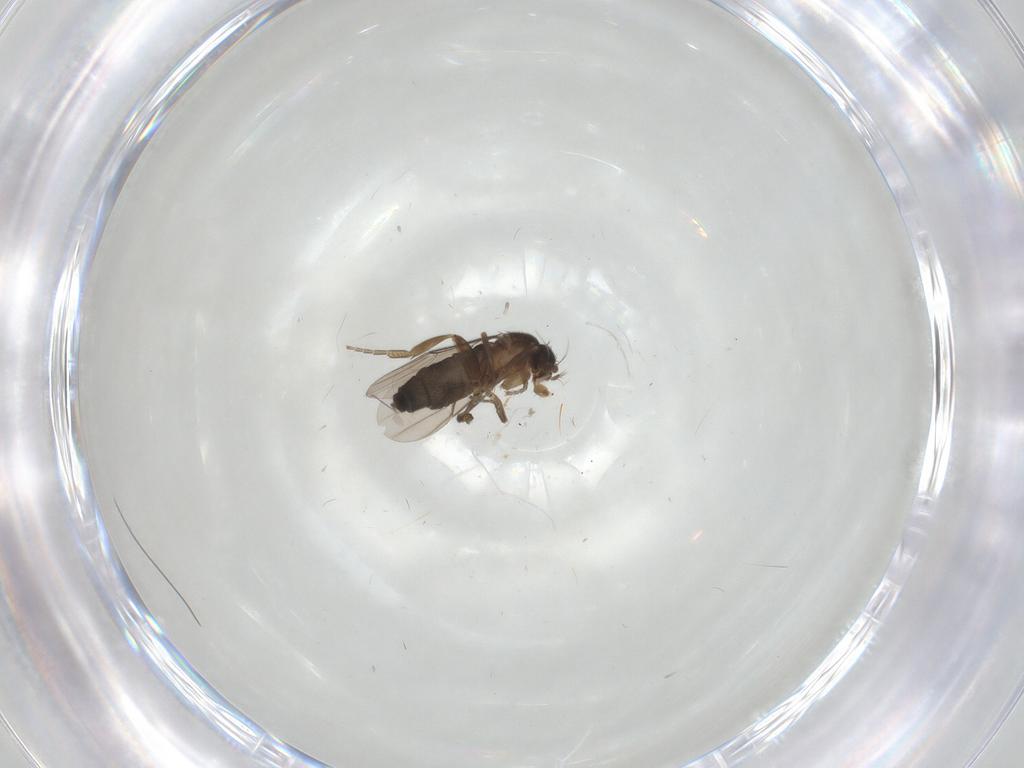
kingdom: Animalia
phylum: Arthropoda
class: Insecta
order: Diptera
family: Phoridae
